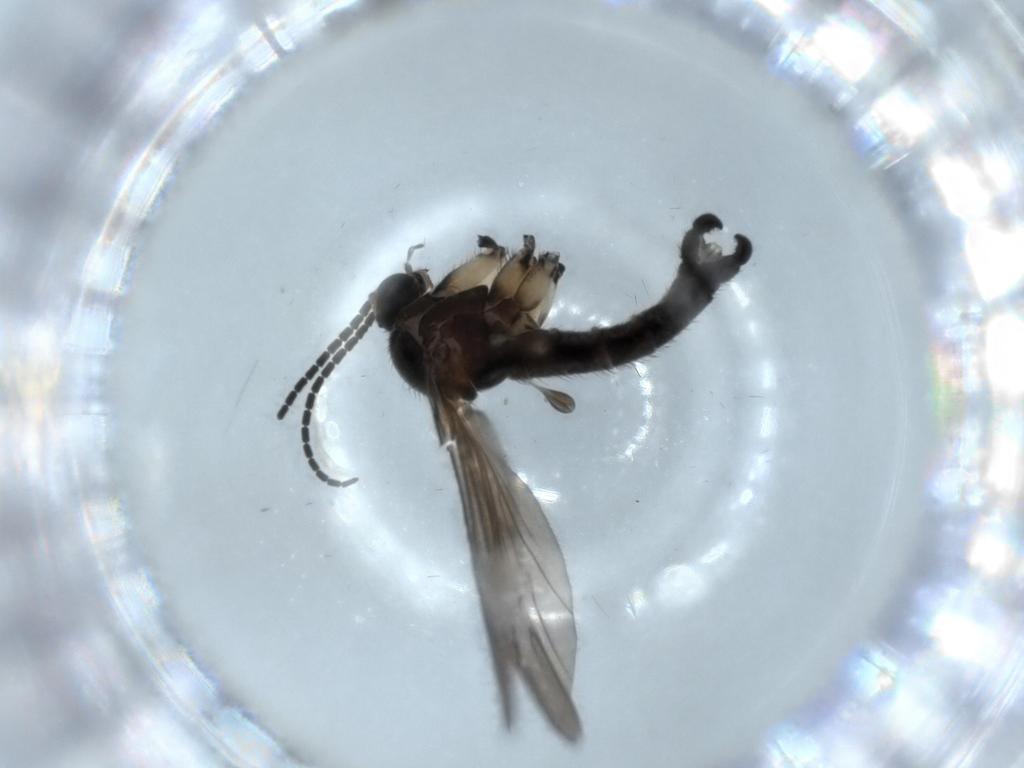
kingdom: Animalia
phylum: Arthropoda
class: Insecta
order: Diptera
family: Sciaridae
